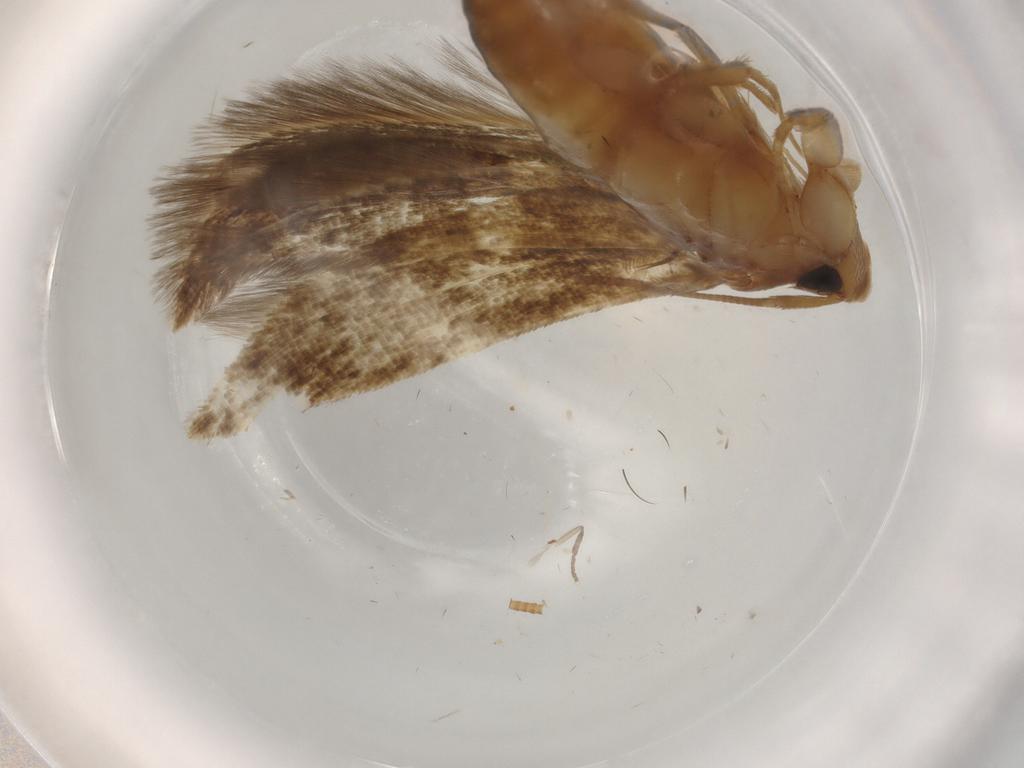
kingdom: Animalia
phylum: Arthropoda
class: Insecta
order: Lepidoptera
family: Tineidae
